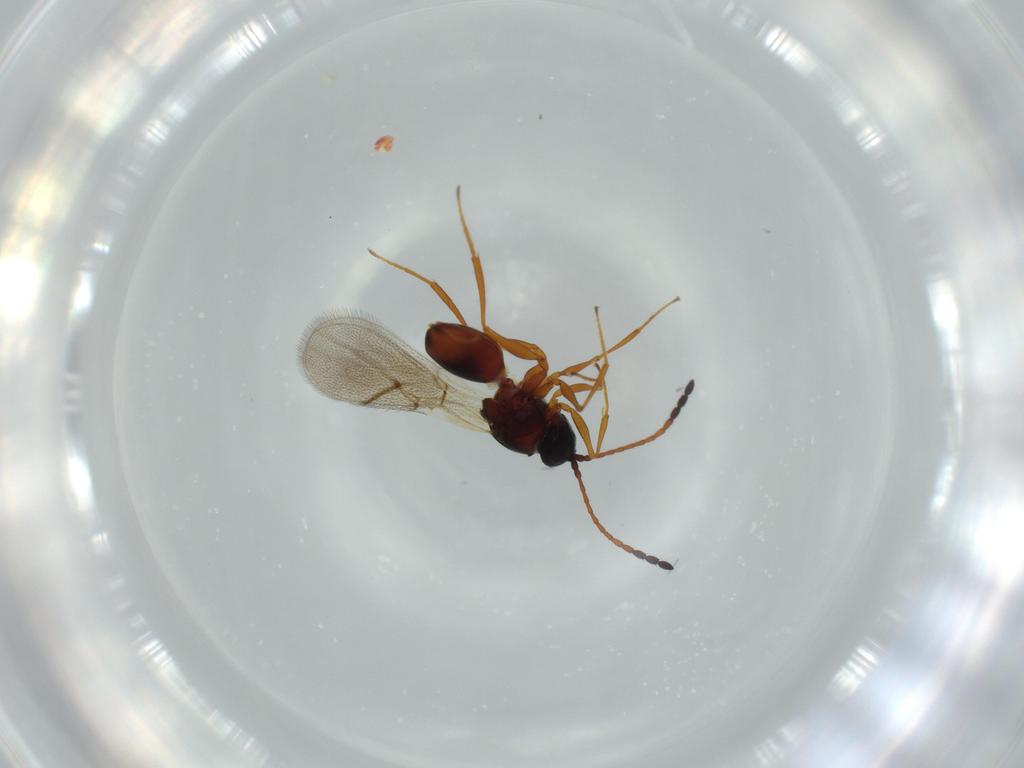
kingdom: Animalia
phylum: Arthropoda
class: Insecta
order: Hymenoptera
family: Figitidae
